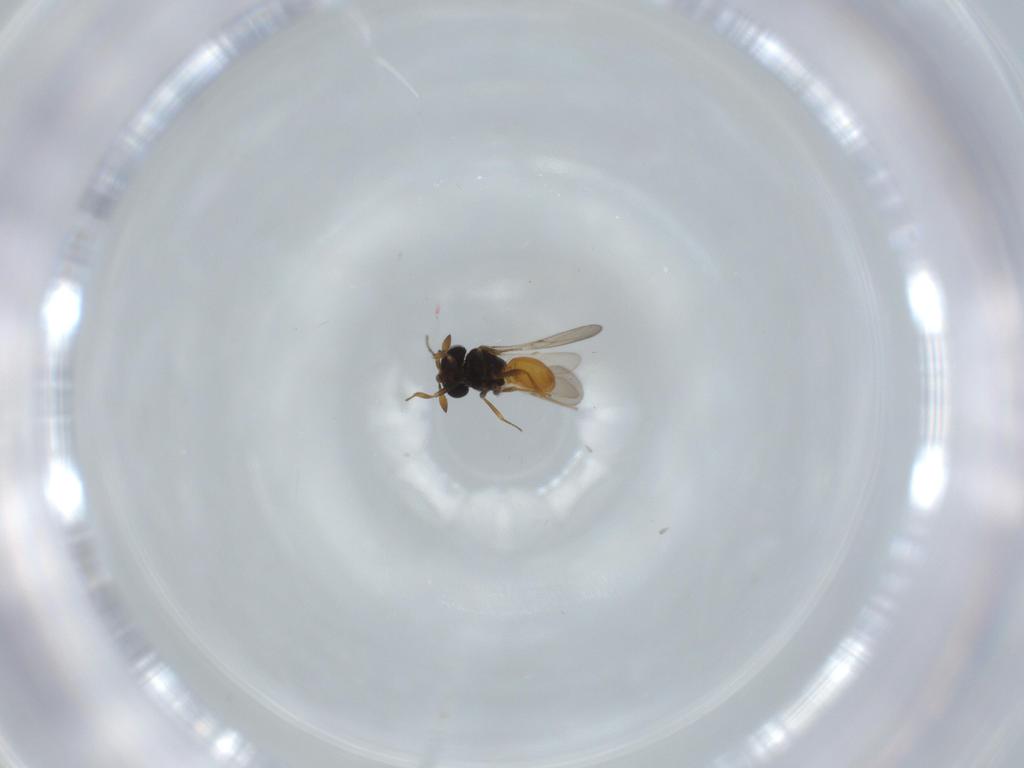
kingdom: Animalia
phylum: Arthropoda
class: Insecta
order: Hymenoptera
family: Scelionidae
